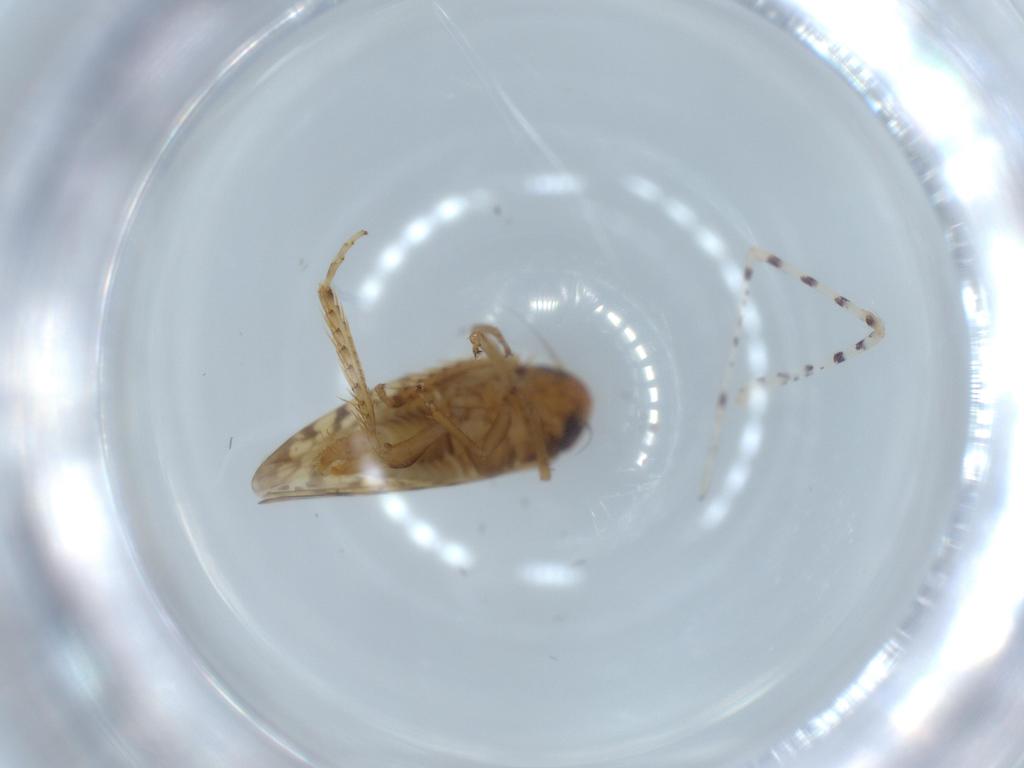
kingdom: Animalia
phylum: Arthropoda
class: Insecta
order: Hemiptera
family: Cicadellidae
